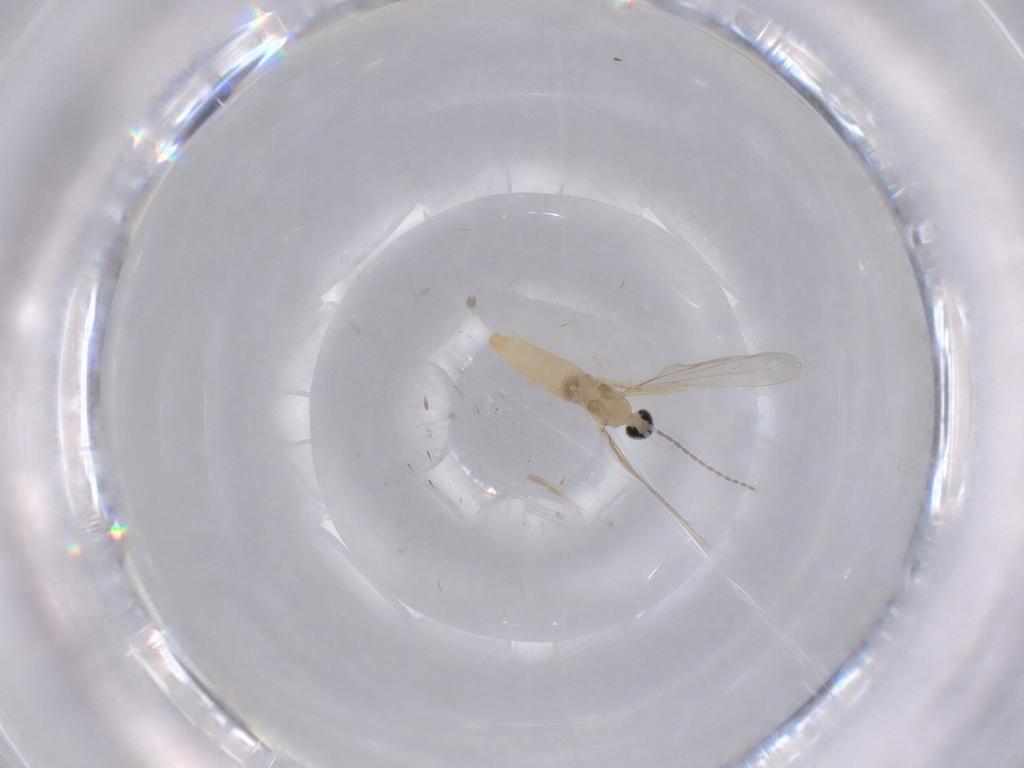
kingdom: Animalia
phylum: Arthropoda
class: Insecta
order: Diptera
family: Cecidomyiidae
